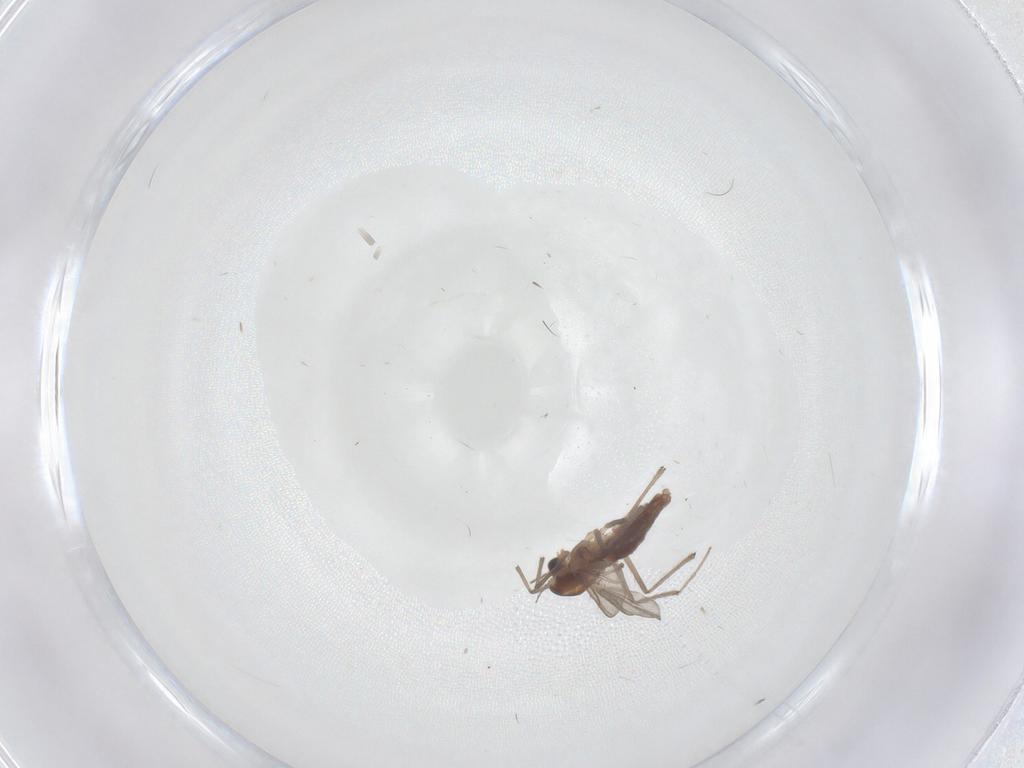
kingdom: Animalia
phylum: Arthropoda
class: Insecta
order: Diptera
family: Chironomidae
